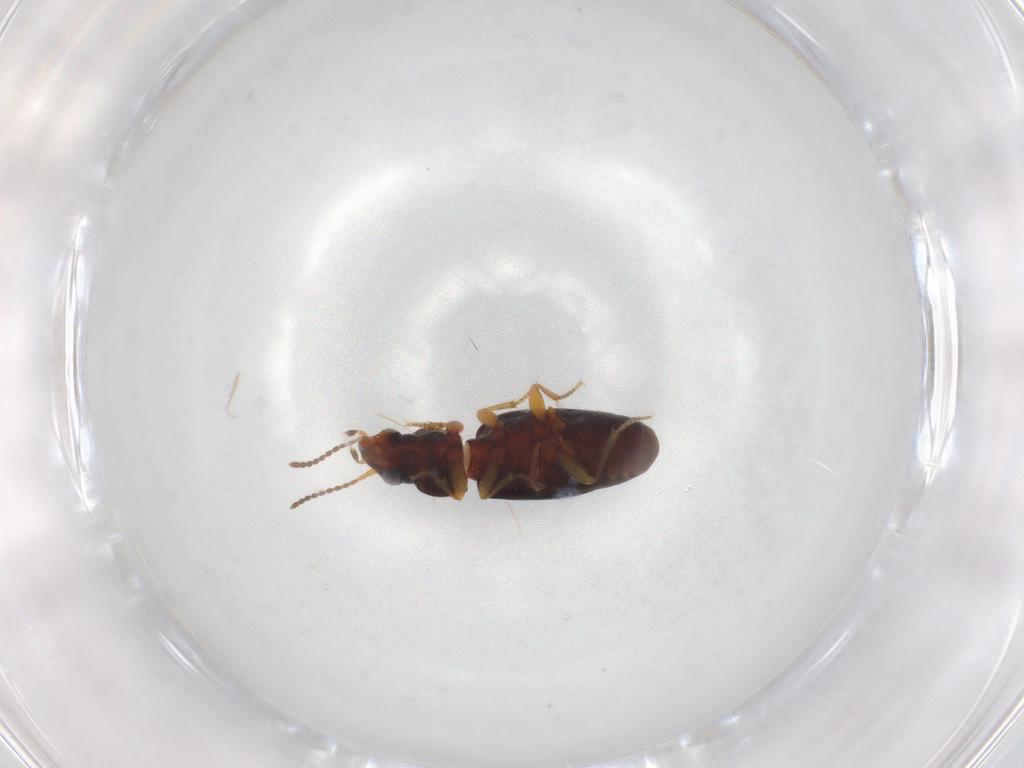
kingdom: Animalia
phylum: Arthropoda
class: Insecta
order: Coleoptera
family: Carabidae
